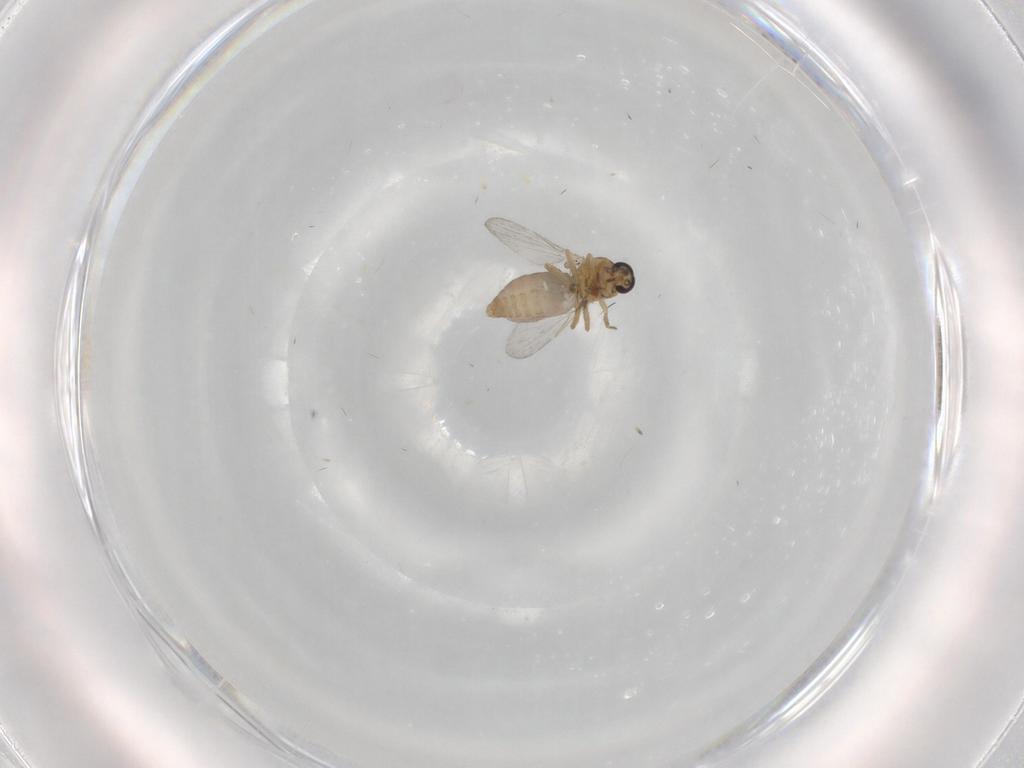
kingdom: Animalia
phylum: Arthropoda
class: Insecta
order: Diptera
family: Ceratopogonidae
